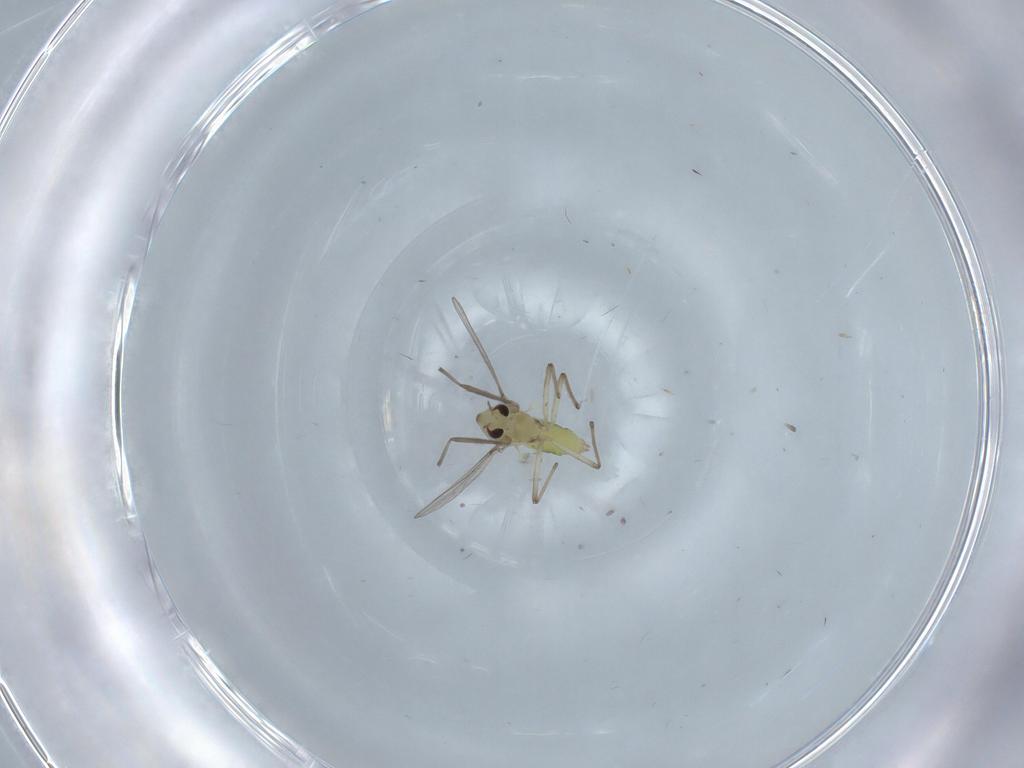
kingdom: Animalia
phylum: Arthropoda
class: Insecta
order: Diptera
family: Chironomidae
